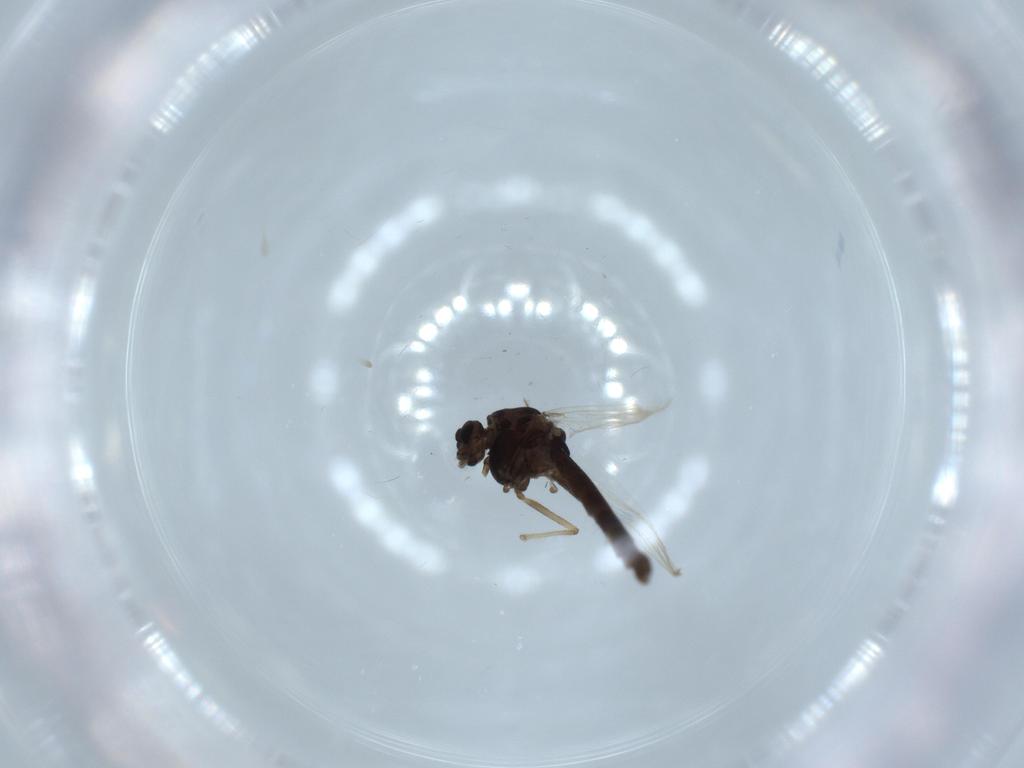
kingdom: Animalia
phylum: Arthropoda
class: Insecta
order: Diptera
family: Chironomidae
